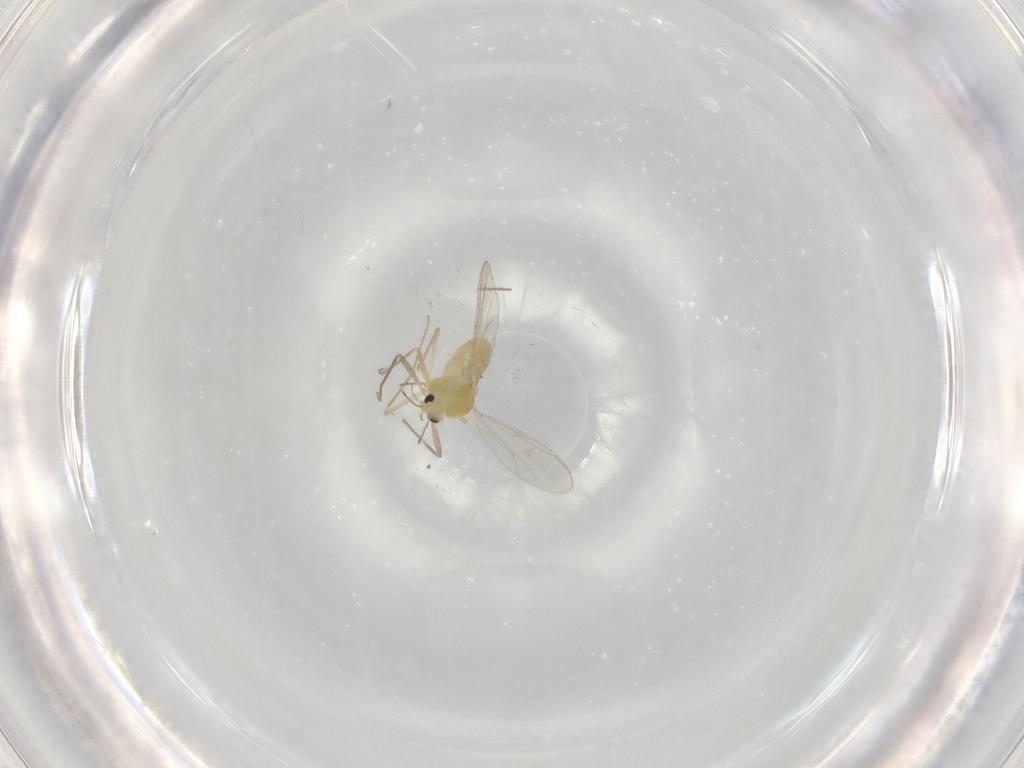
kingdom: Animalia
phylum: Arthropoda
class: Insecta
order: Diptera
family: Chironomidae
